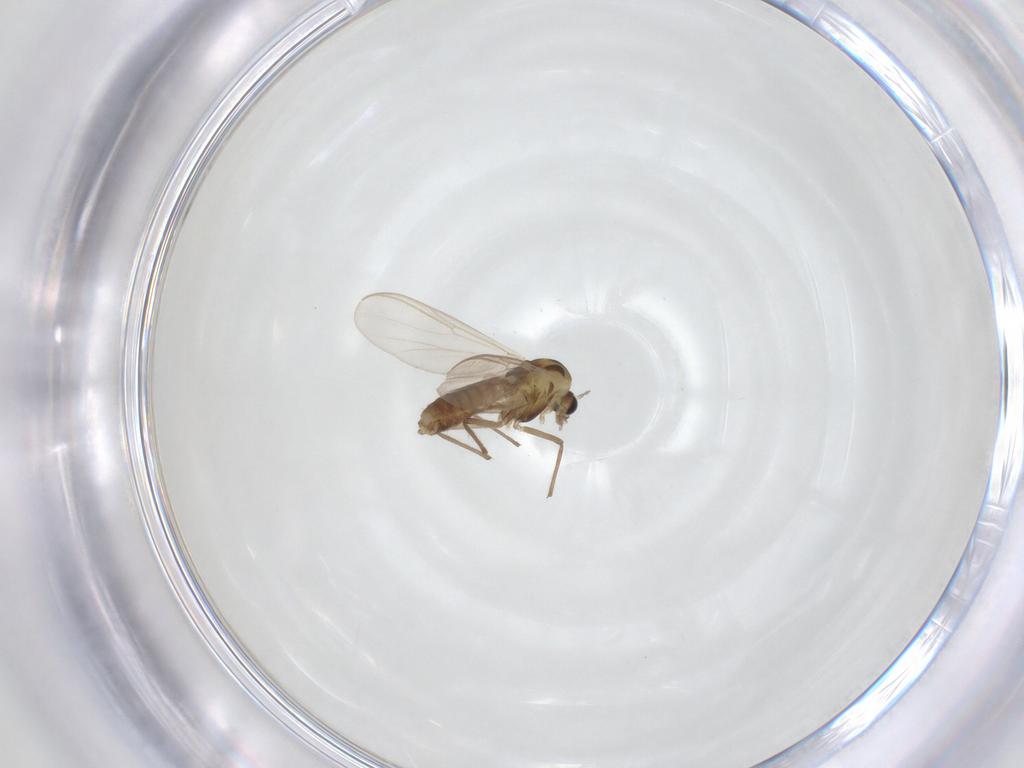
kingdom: Animalia
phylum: Arthropoda
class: Insecta
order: Diptera
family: Chironomidae
